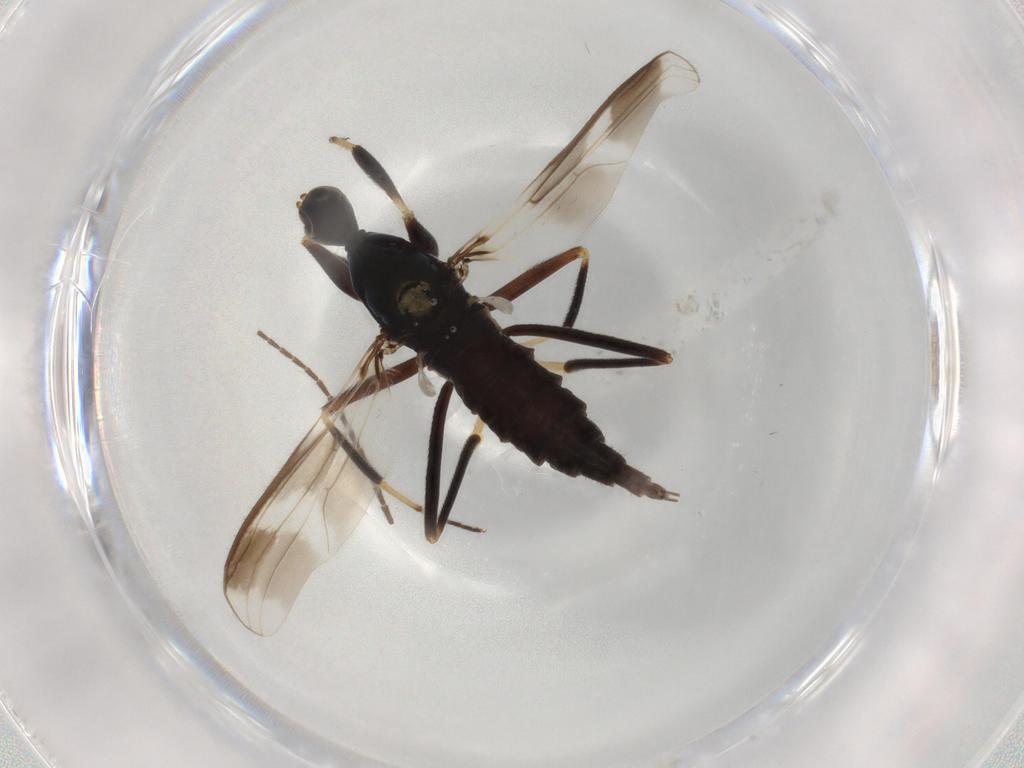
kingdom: Animalia
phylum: Arthropoda
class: Insecta
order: Diptera
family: Hybotidae
